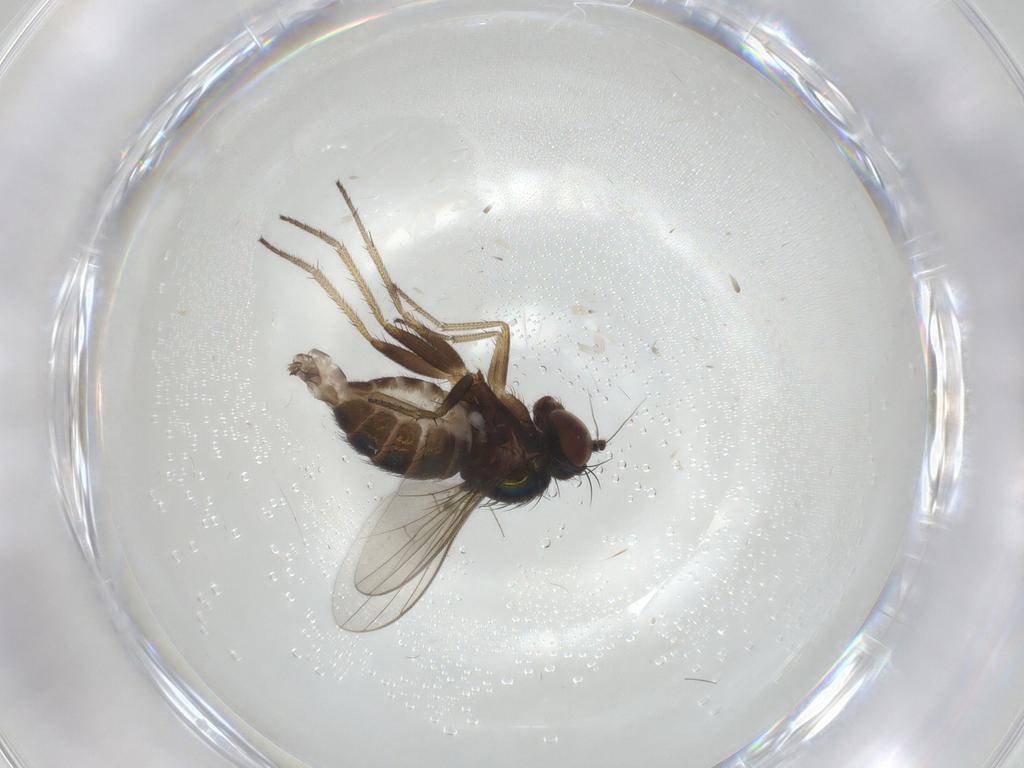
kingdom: Animalia
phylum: Arthropoda
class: Insecta
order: Diptera
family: Dolichopodidae
